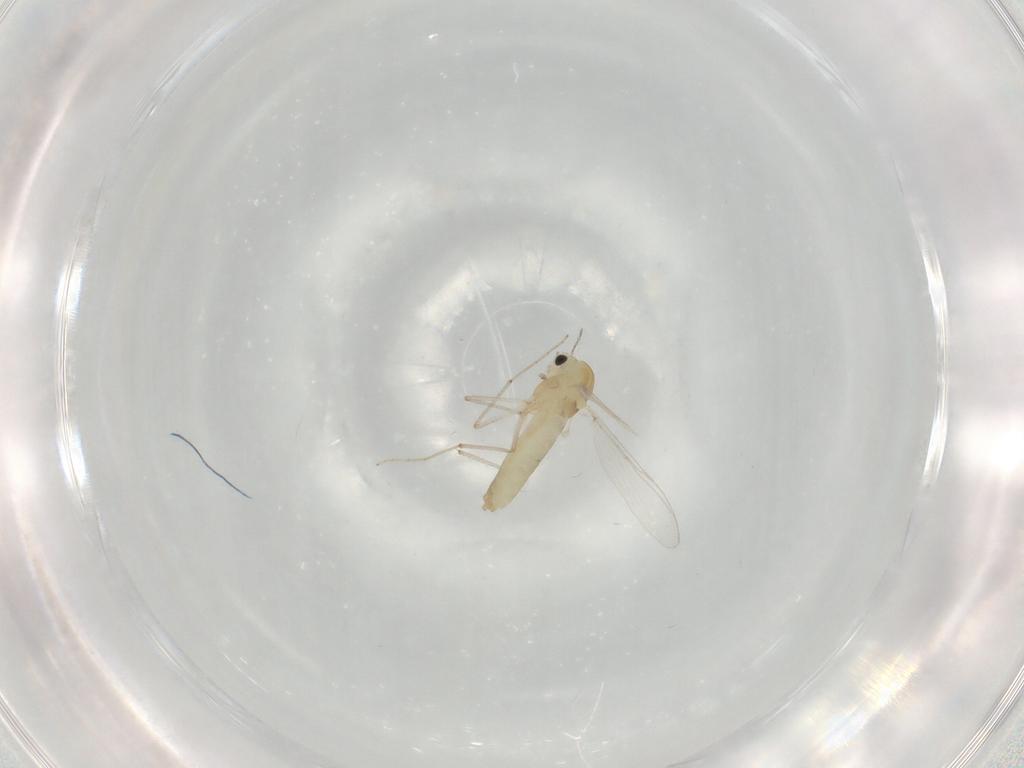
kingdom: Animalia
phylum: Arthropoda
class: Insecta
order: Diptera
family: Chironomidae
